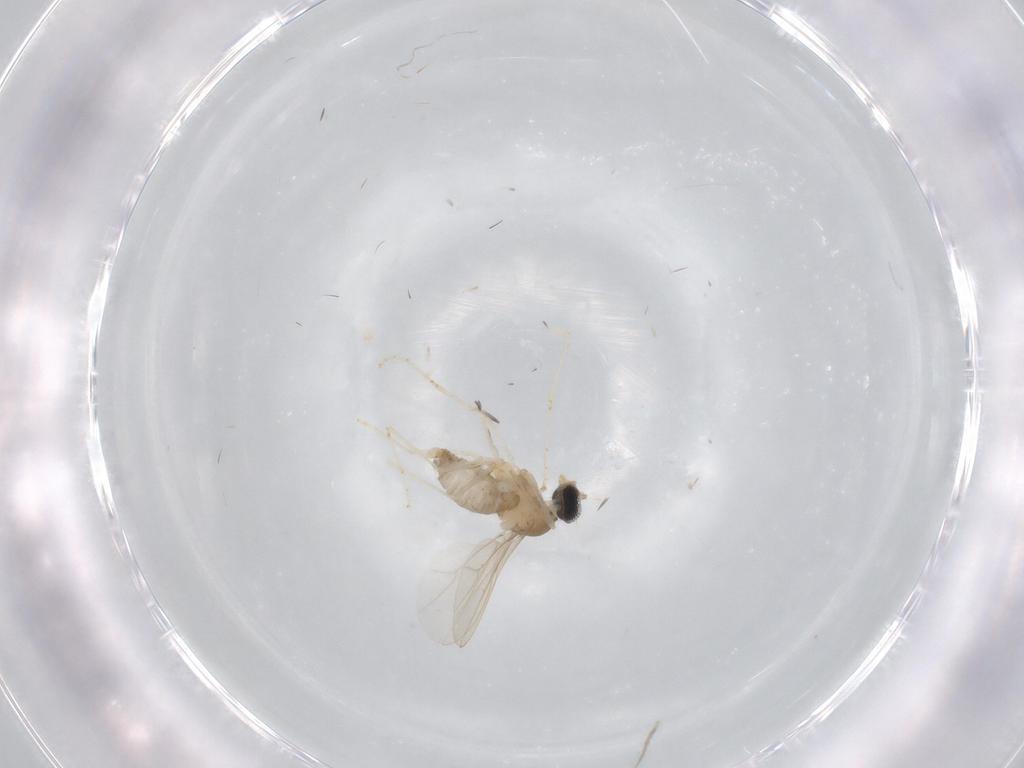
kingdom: Animalia
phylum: Arthropoda
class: Insecta
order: Diptera
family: Cecidomyiidae
